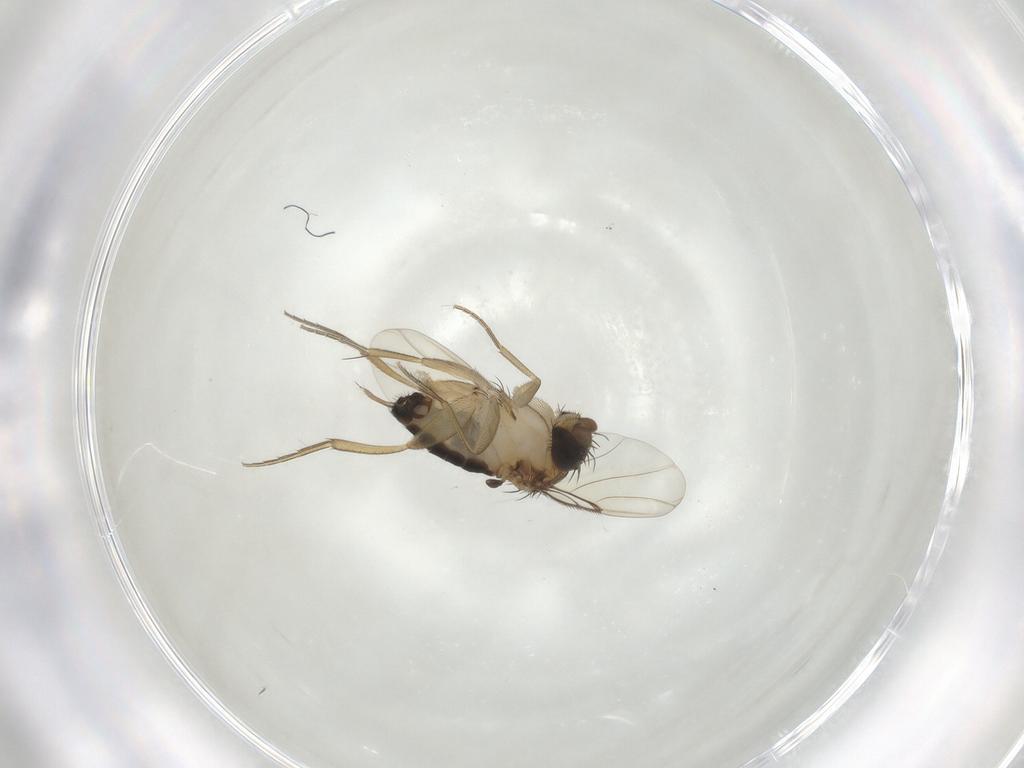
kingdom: Animalia
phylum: Arthropoda
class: Insecta
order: Diptera
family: Phoridae
